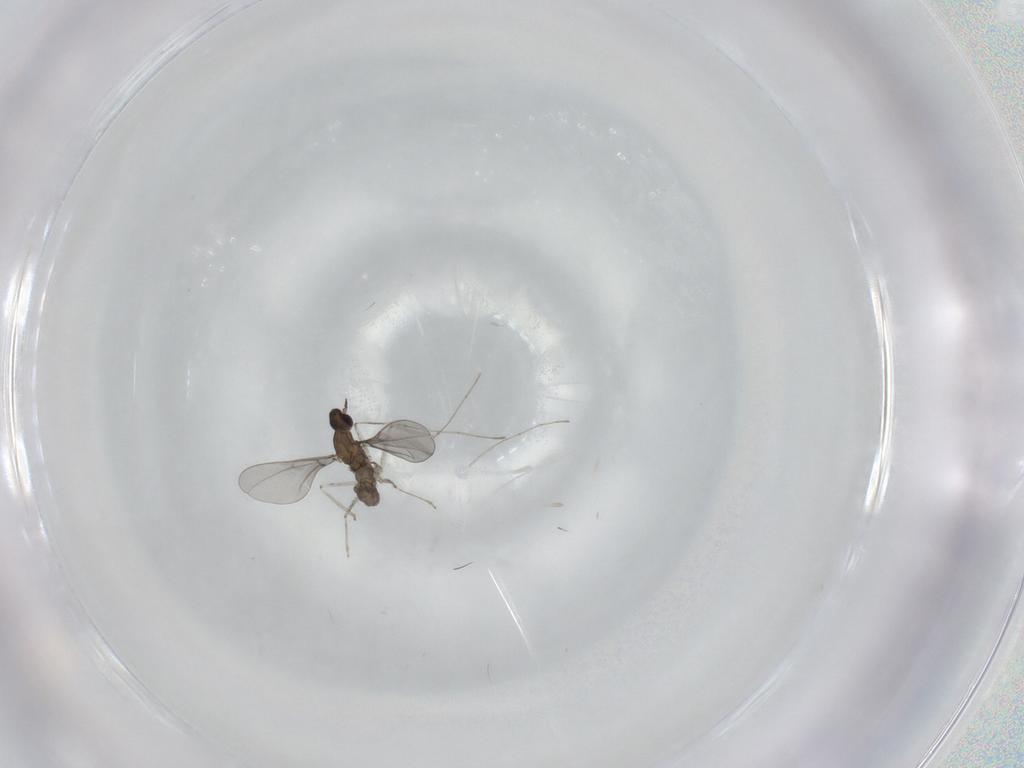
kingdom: Animalia
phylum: Arthropoda
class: Insecta
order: Diptera
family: Cecidomyiidae
